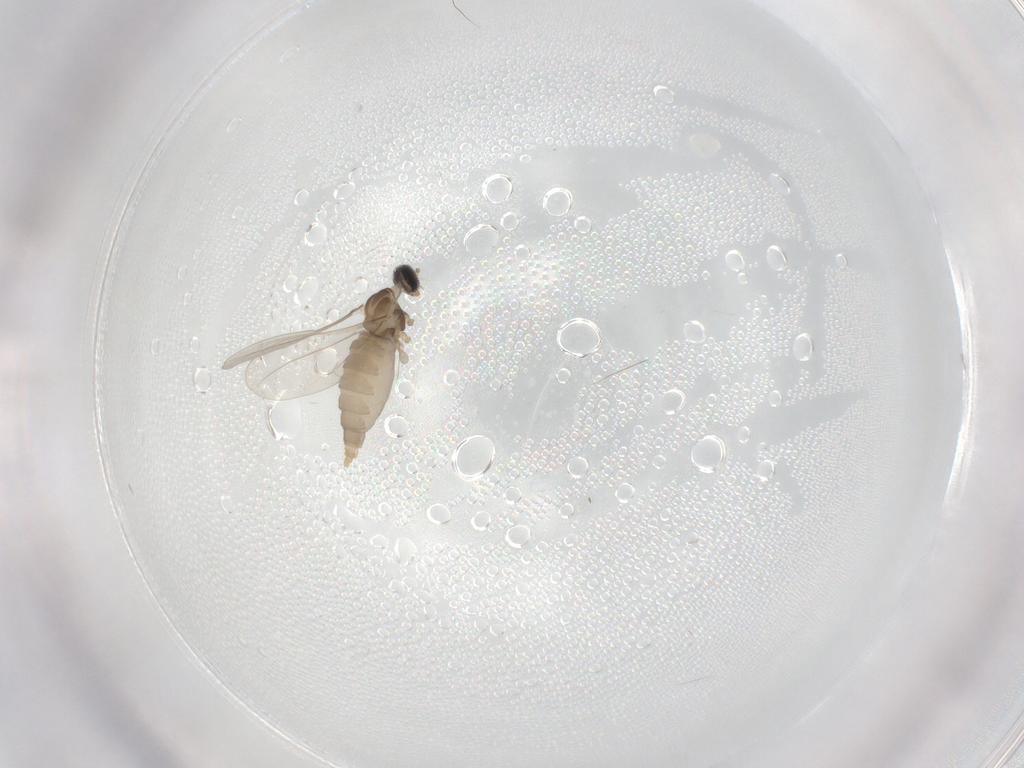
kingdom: Animalia
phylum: Arthropoda
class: Insecta
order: Diptera
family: Cecidomyiidae
